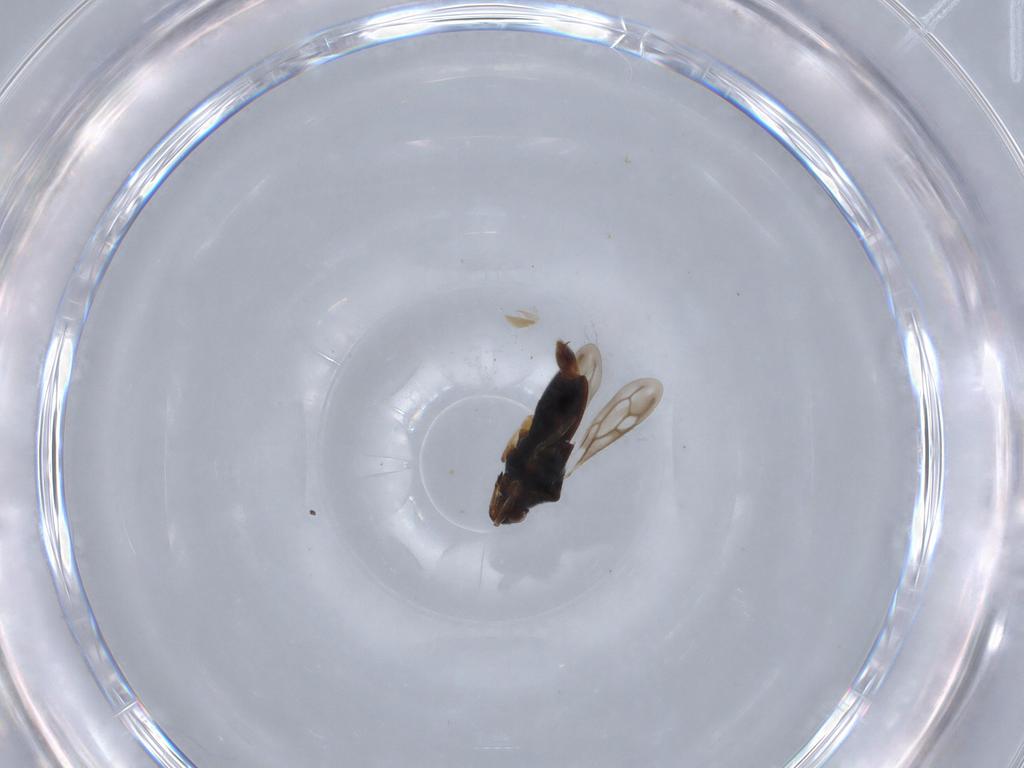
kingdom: Animalia
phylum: Arthropoda
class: Insecta
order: Hemiptera
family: Veliidae
